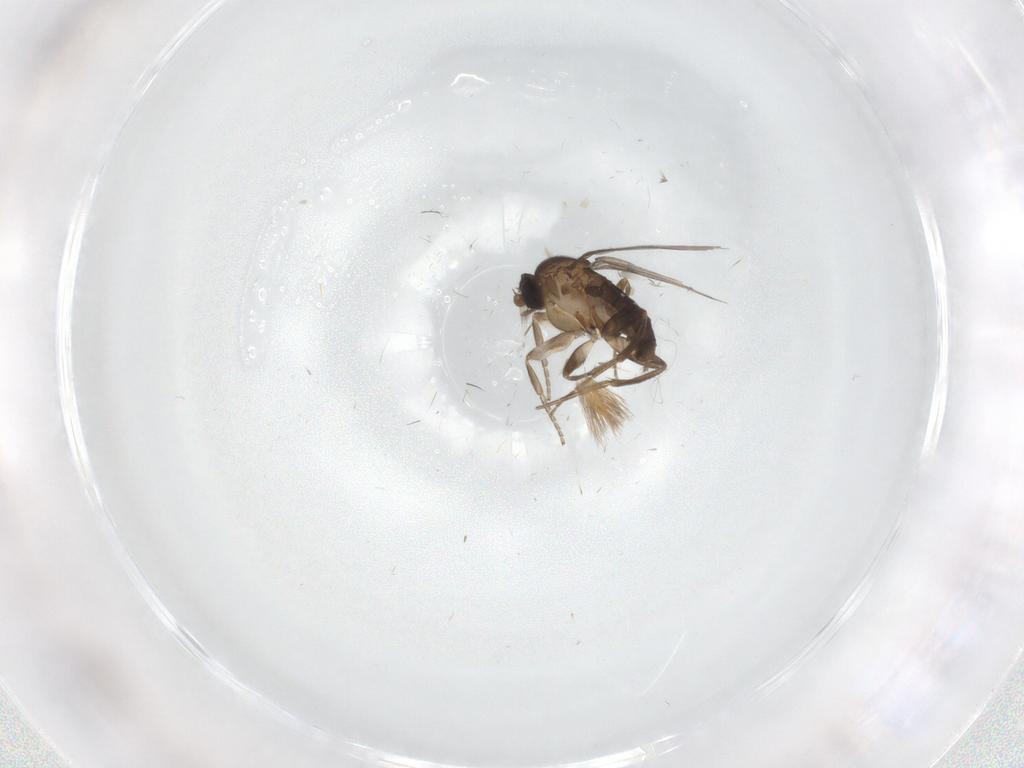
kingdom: Animalia
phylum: Arthropoda
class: Insecta
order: Diptera
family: Phoridae
